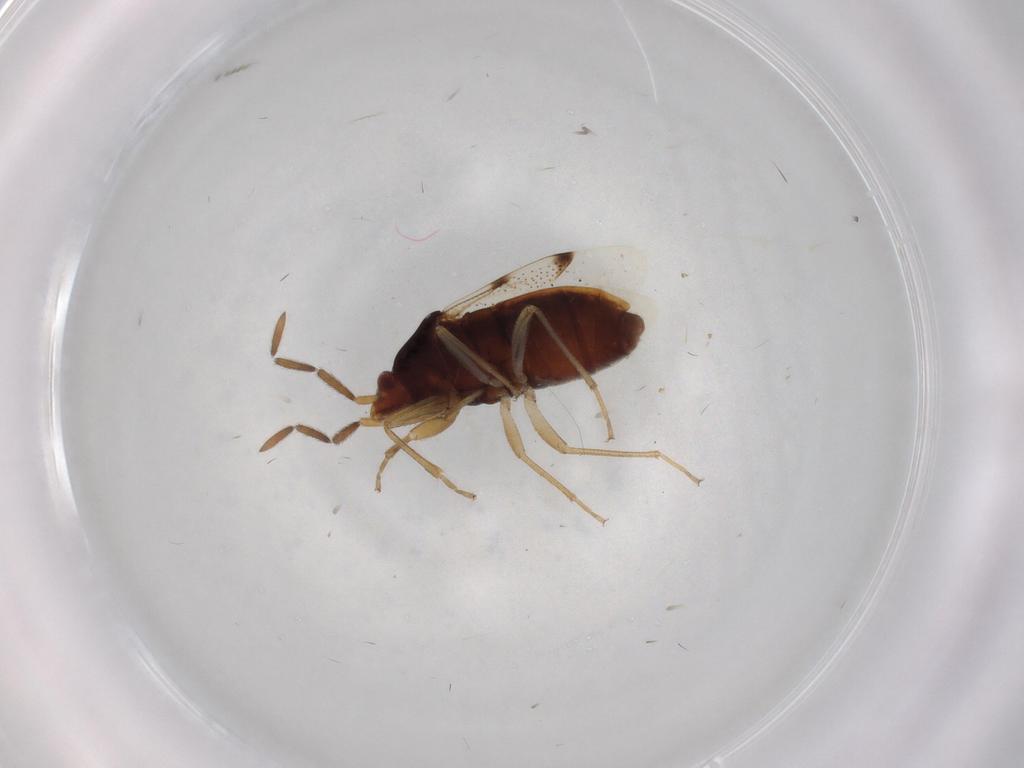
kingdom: Animalia
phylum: Arthropoda
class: Insecta
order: Hemiptera
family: Rhyparochromidae
